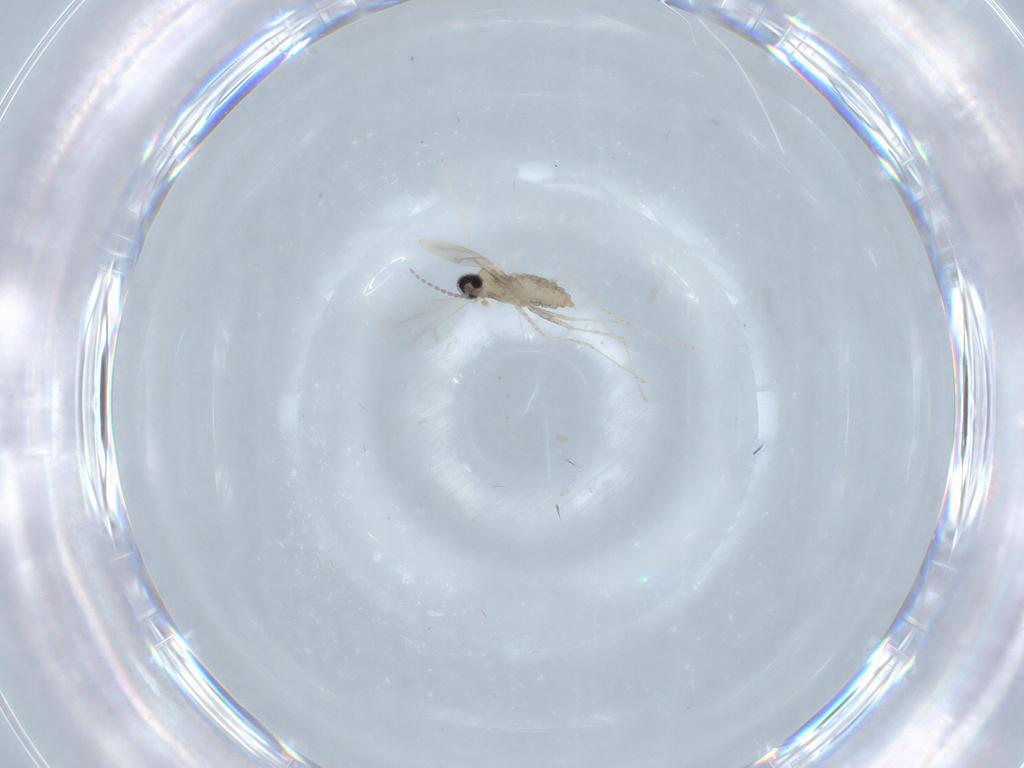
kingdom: Animalia
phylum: Arthropoda
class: Insecta
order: Diptera
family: Cecidomyiidae
